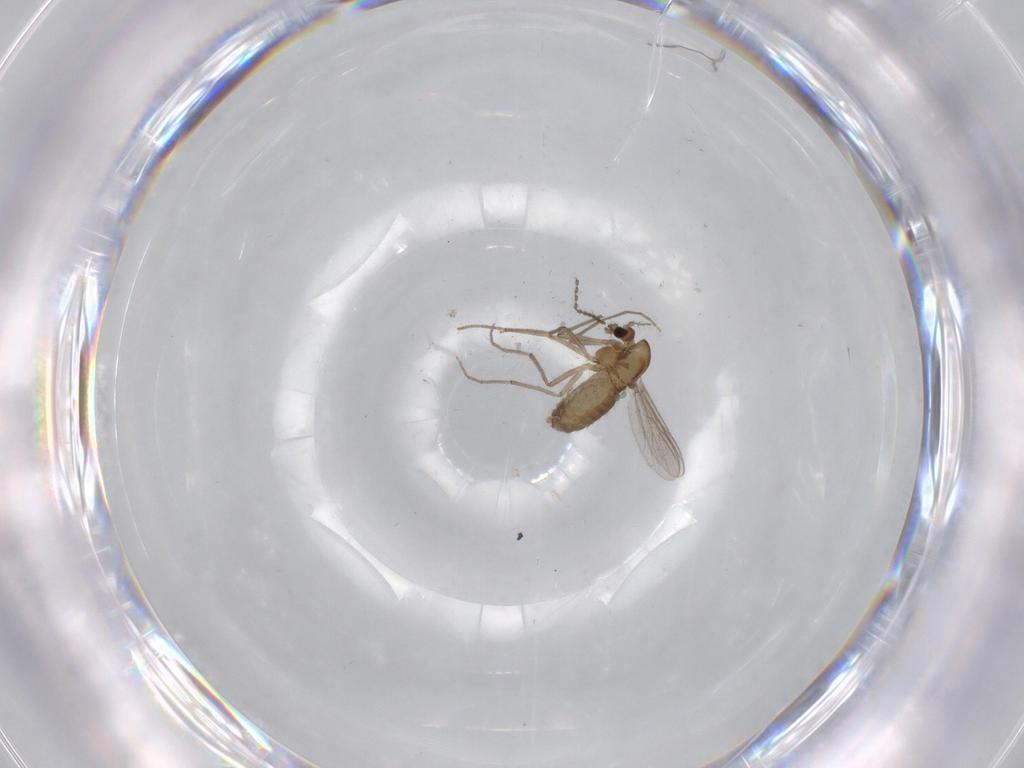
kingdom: Animalia
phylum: Arthropoda
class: Insecta
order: Diptera
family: Chironomidae
